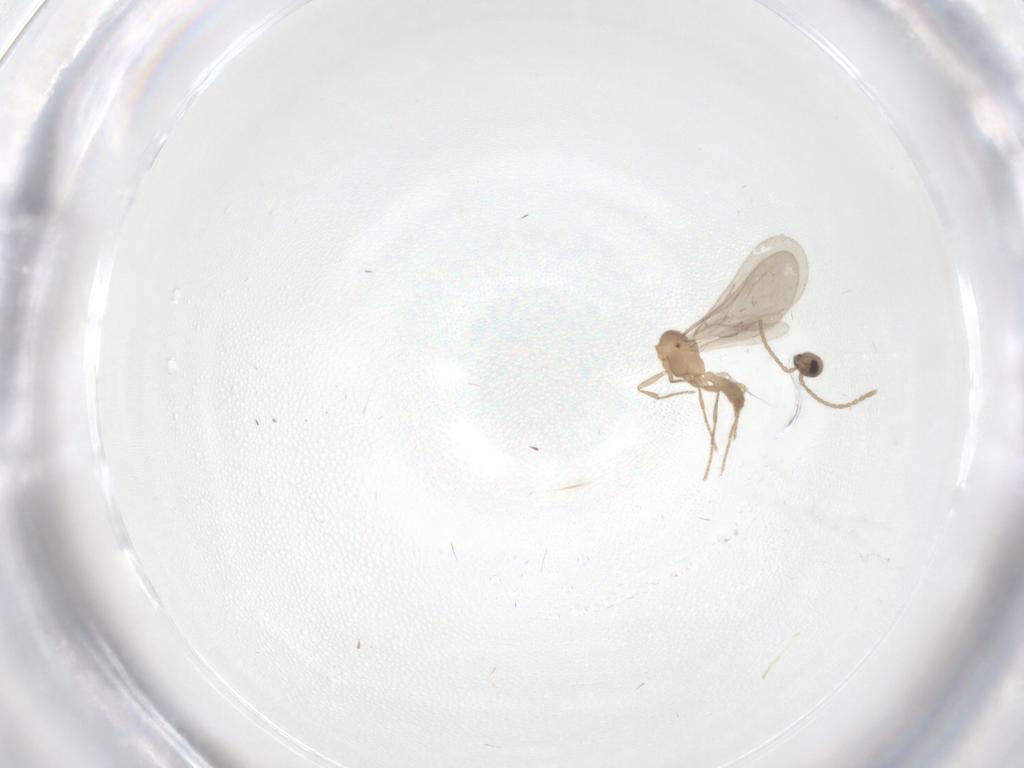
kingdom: Animalia
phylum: Arthropoda
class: Insecta
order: Hymenoptera
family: Formicidae
